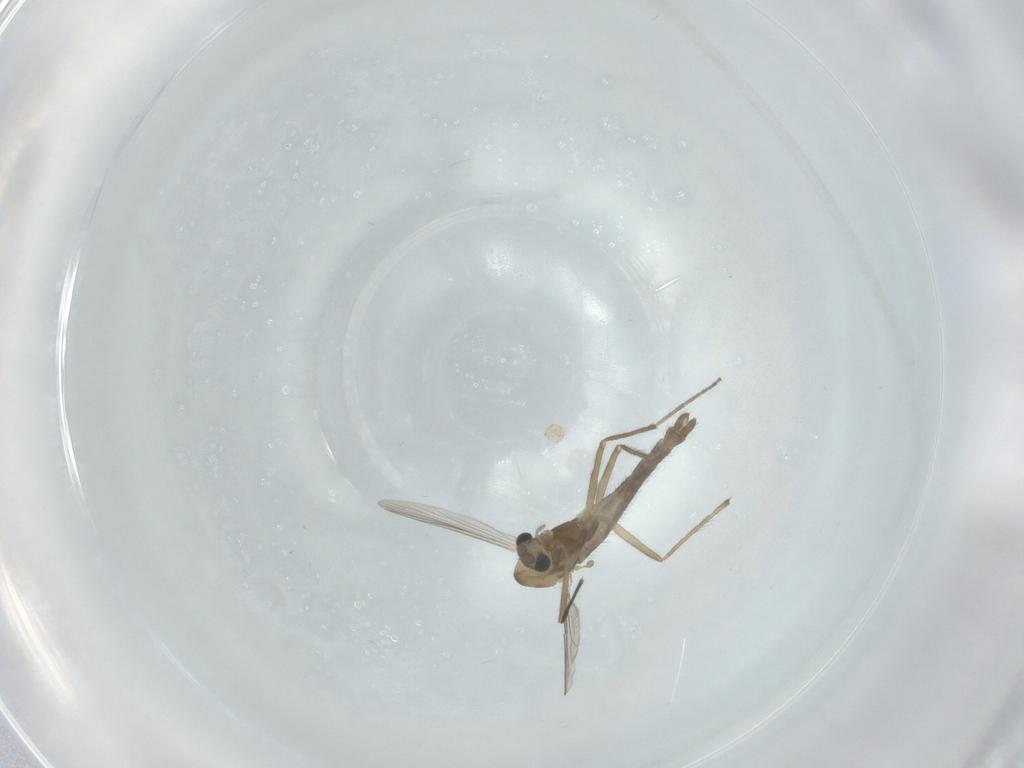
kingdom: Animalia
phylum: Arthropoda
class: Insecta
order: Diptera
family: Chironomidae
